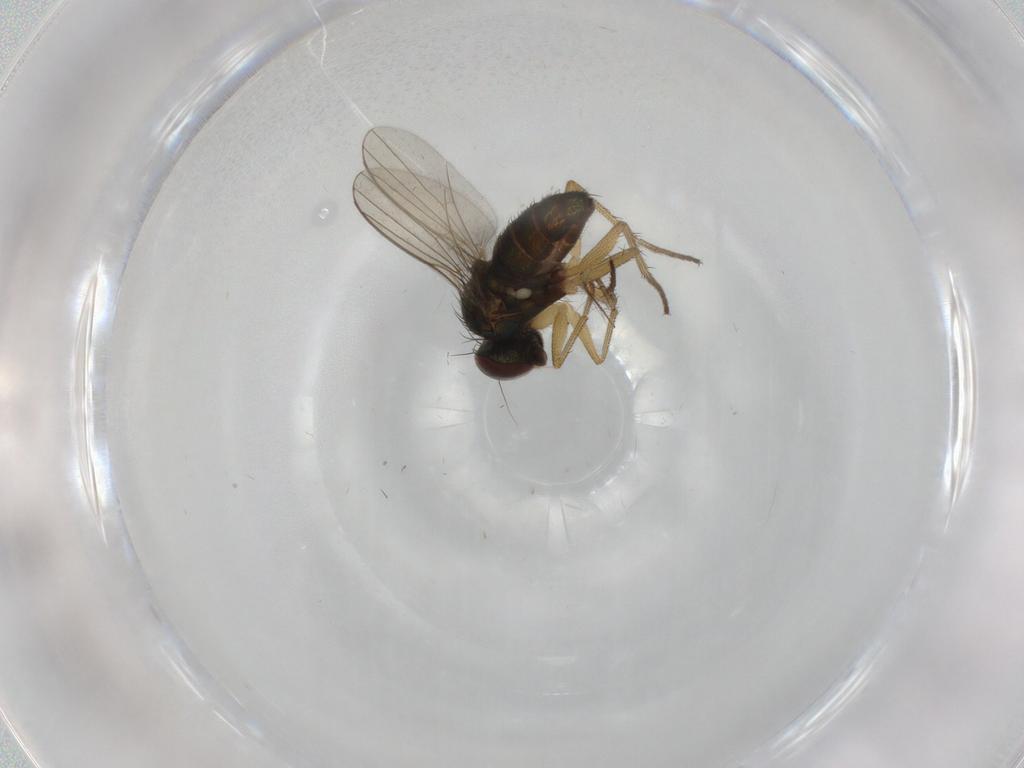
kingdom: Animalia
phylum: Arthropoda
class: Insecta
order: Diptera
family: Dolichopodidae
